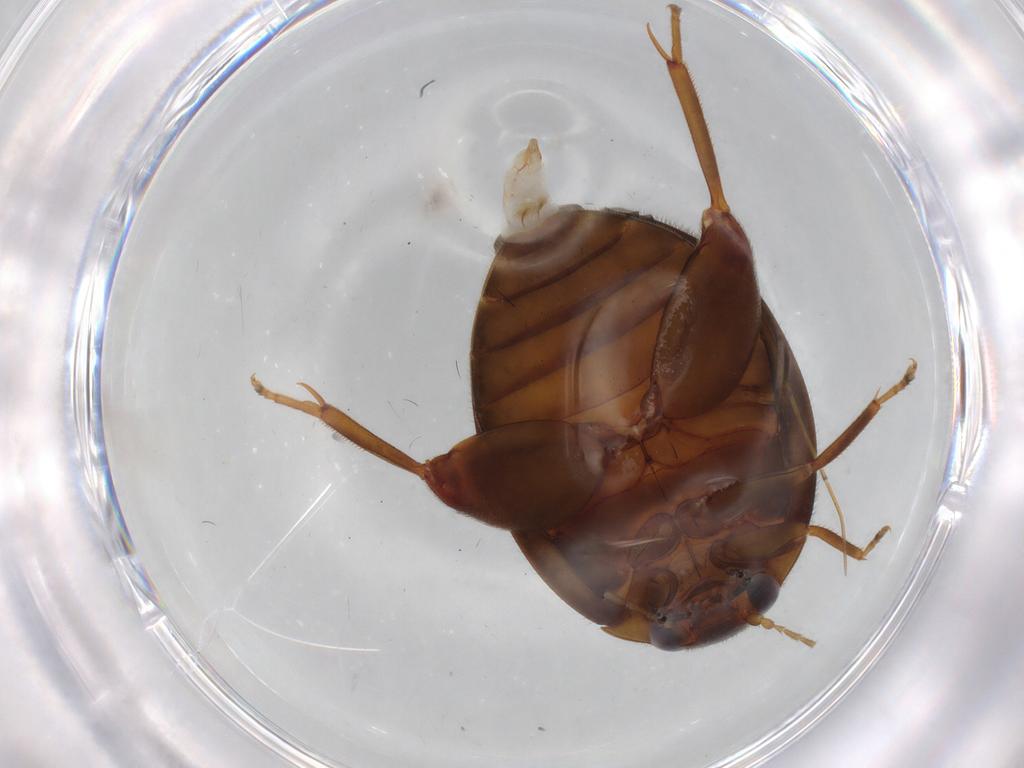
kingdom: Animalia
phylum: Arthropoda
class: Insecta
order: Coleoptera
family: Scirtidae
